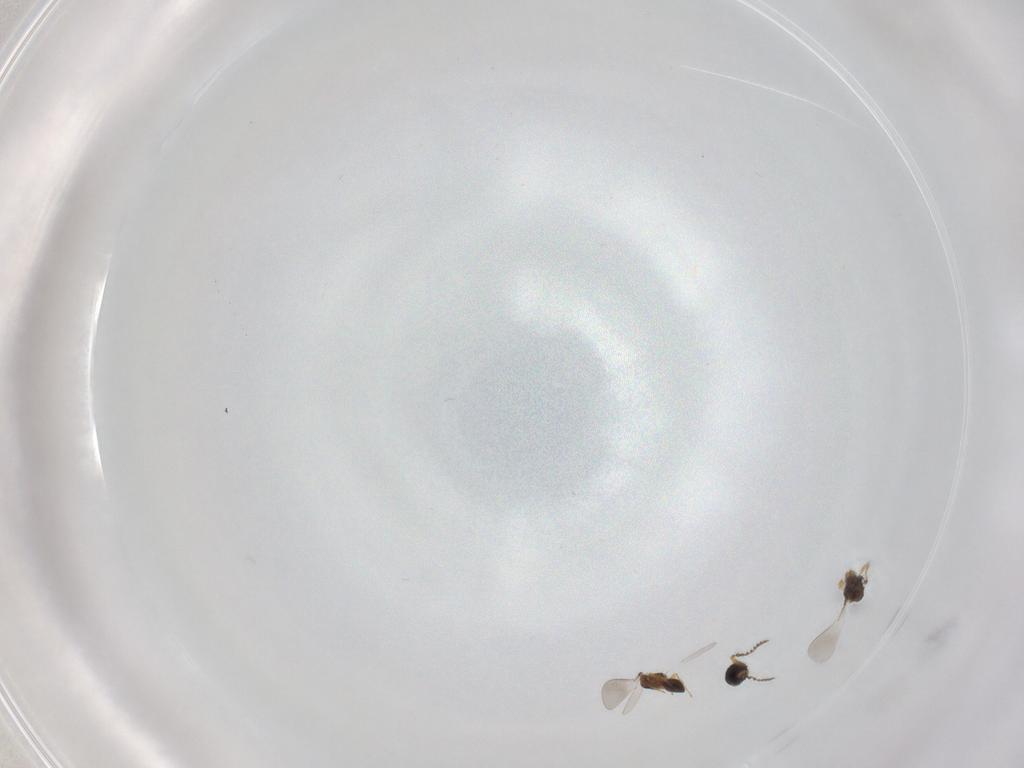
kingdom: Animalia
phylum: Arthropoda
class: Insecta
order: Hymenoptera
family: Platygastridae
